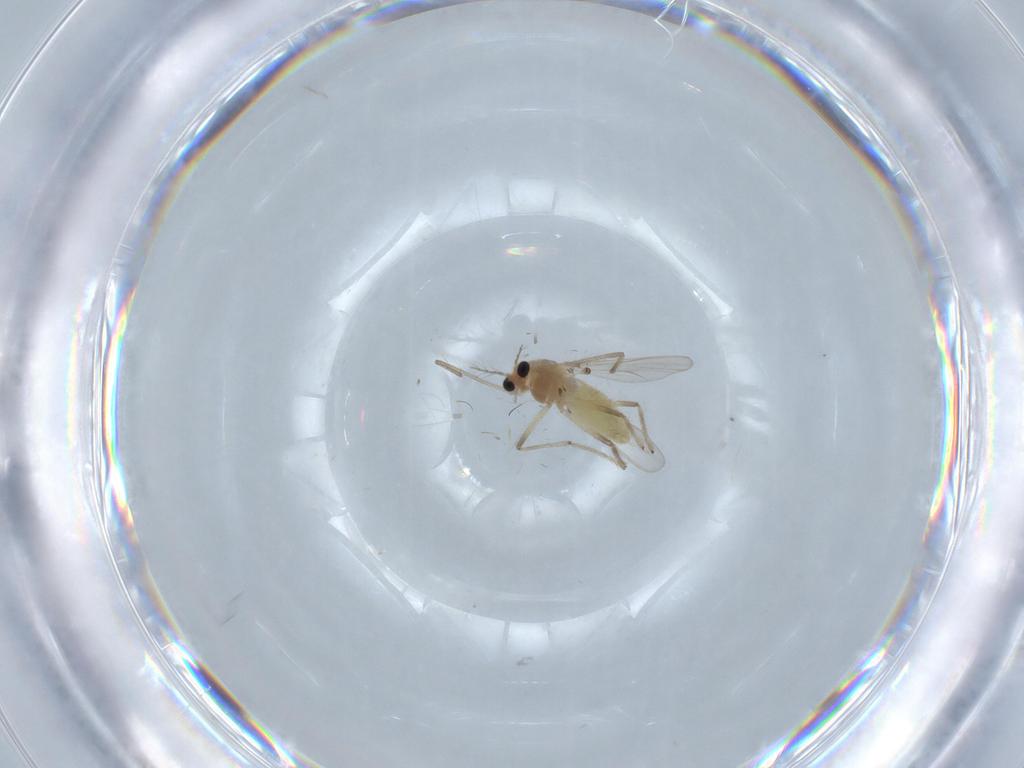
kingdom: Animalia
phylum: Arthropoda
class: Insecta
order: Diptera
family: Chironomidae
